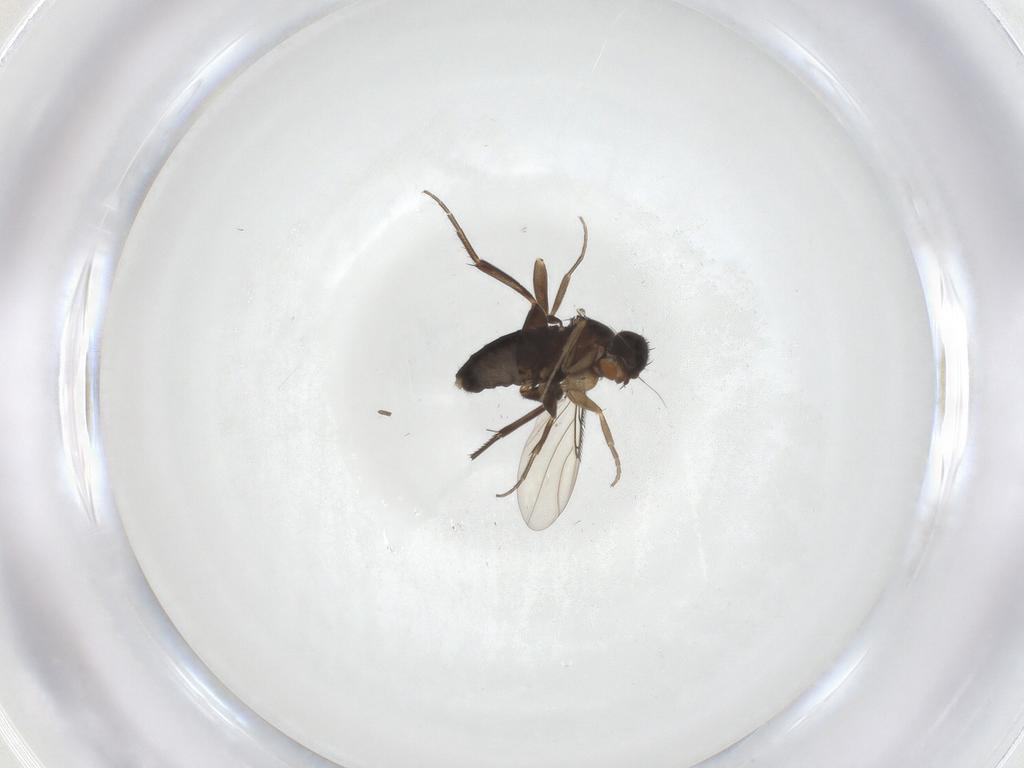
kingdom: Animalia
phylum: Arthropoda
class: Insecta
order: Diptera
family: Phoridae
